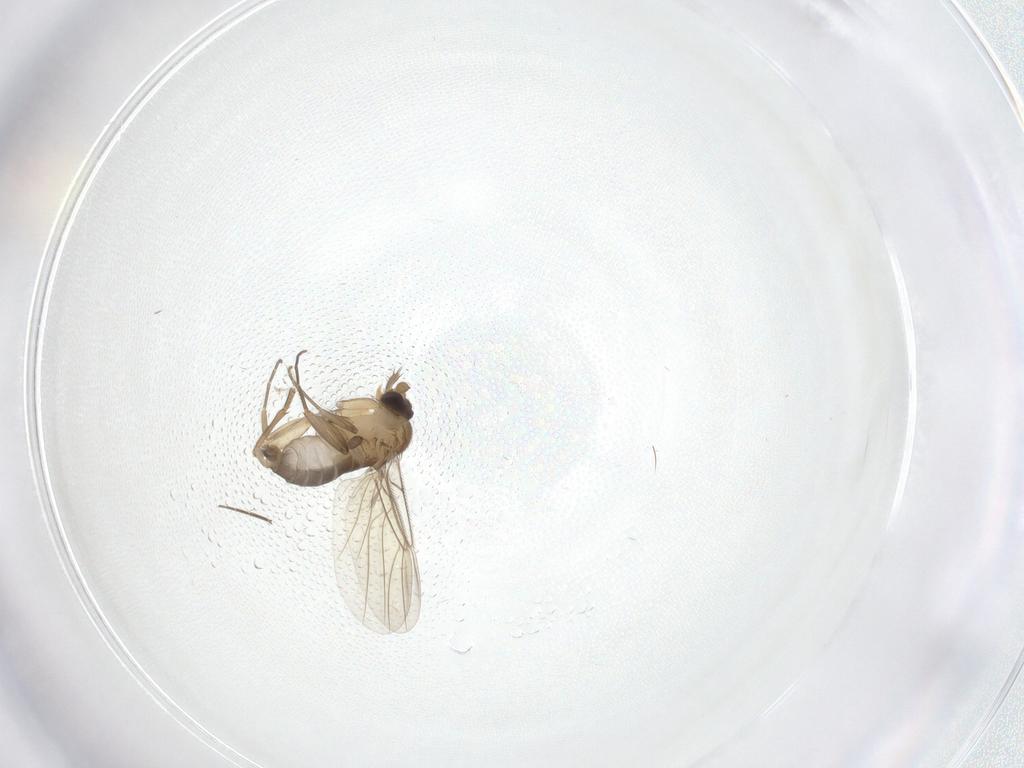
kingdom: Animalia
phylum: Arthropoda
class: Insecta
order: Diptera
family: Phoridae
